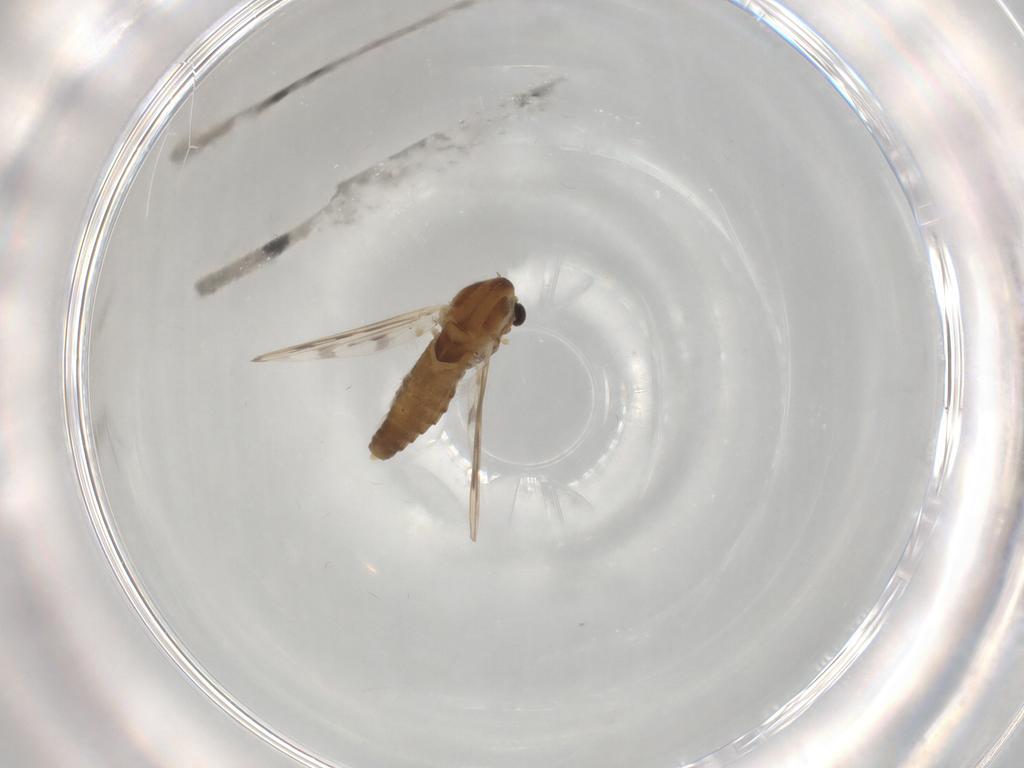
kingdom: Animalia
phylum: Arthropoda
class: Insecta
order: Diptera
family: Chironomidae
